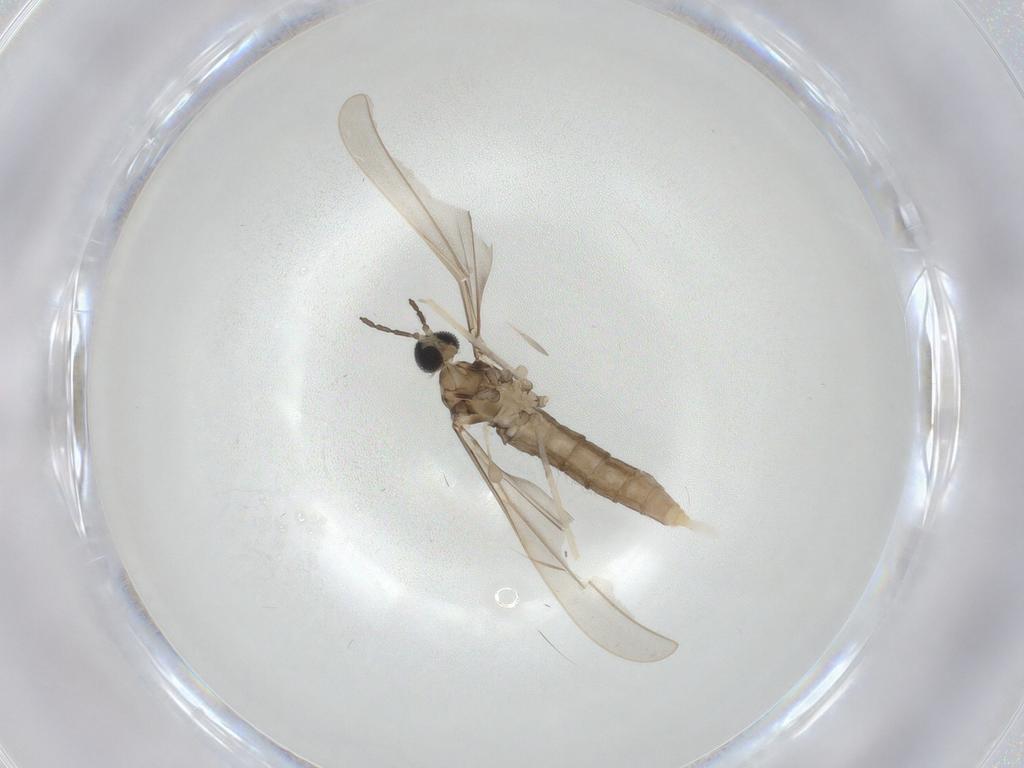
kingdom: Animalia
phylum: Arthropoda
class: Insecta
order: Diptera
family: Cecidomyiidae
